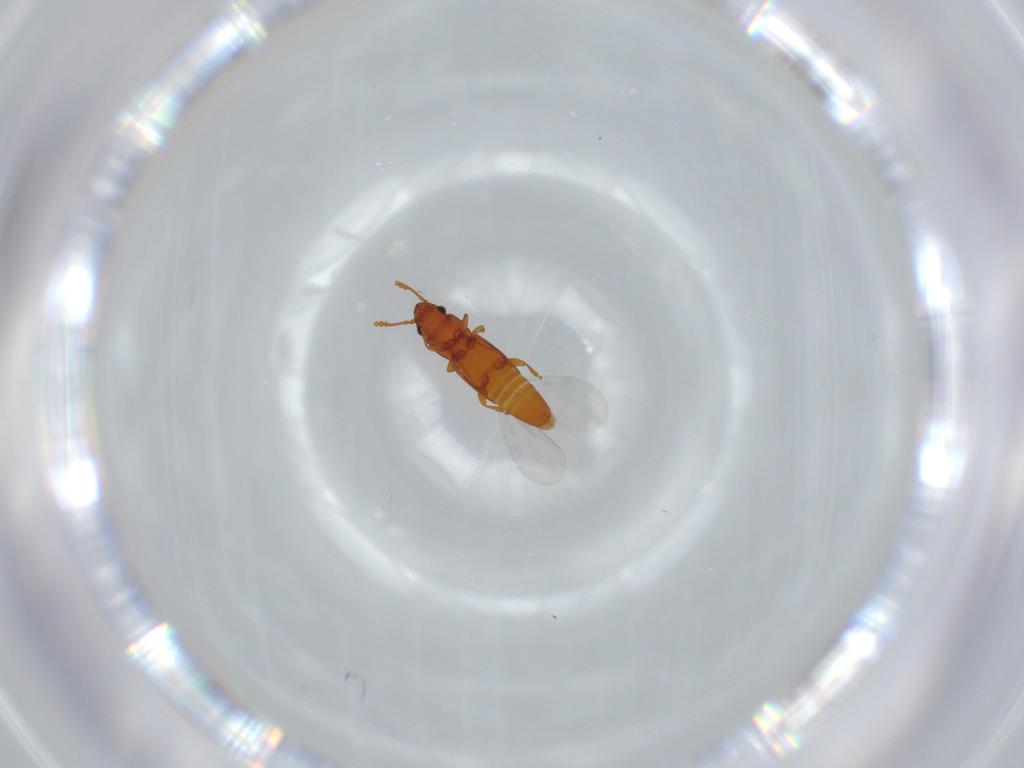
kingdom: Animalia
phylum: Arthropoda
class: Insecta
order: Coleoptera
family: Smicripidae
